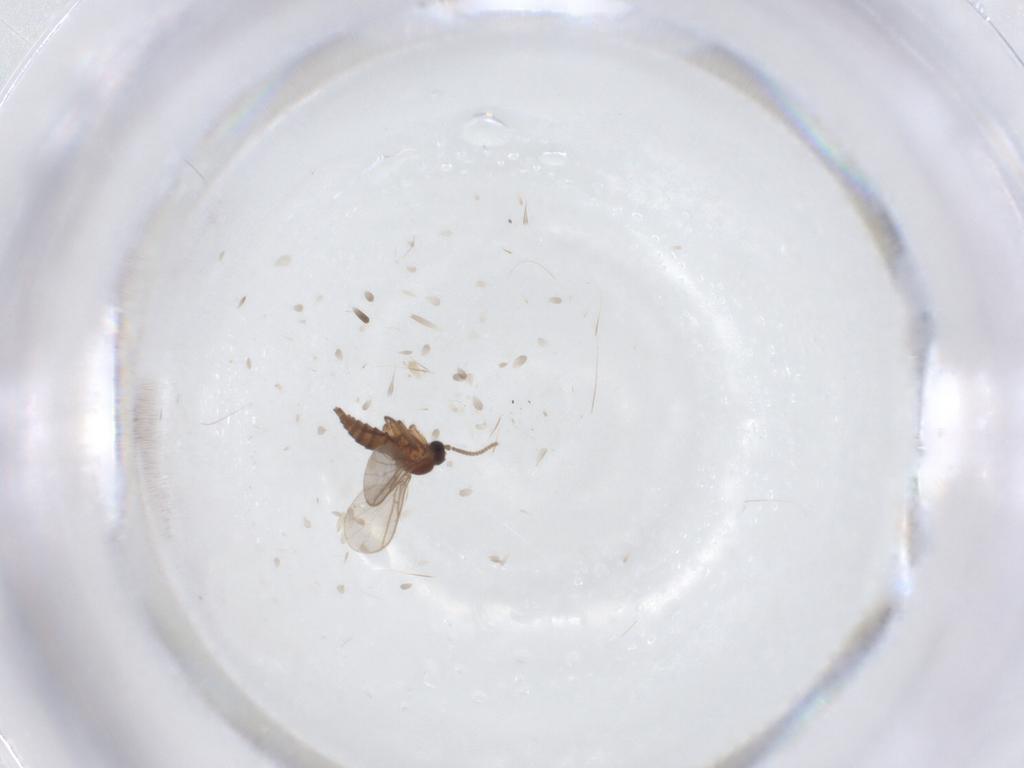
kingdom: Animalia
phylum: Arthropoda
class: Insecta
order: Diptera
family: Sciaridae
